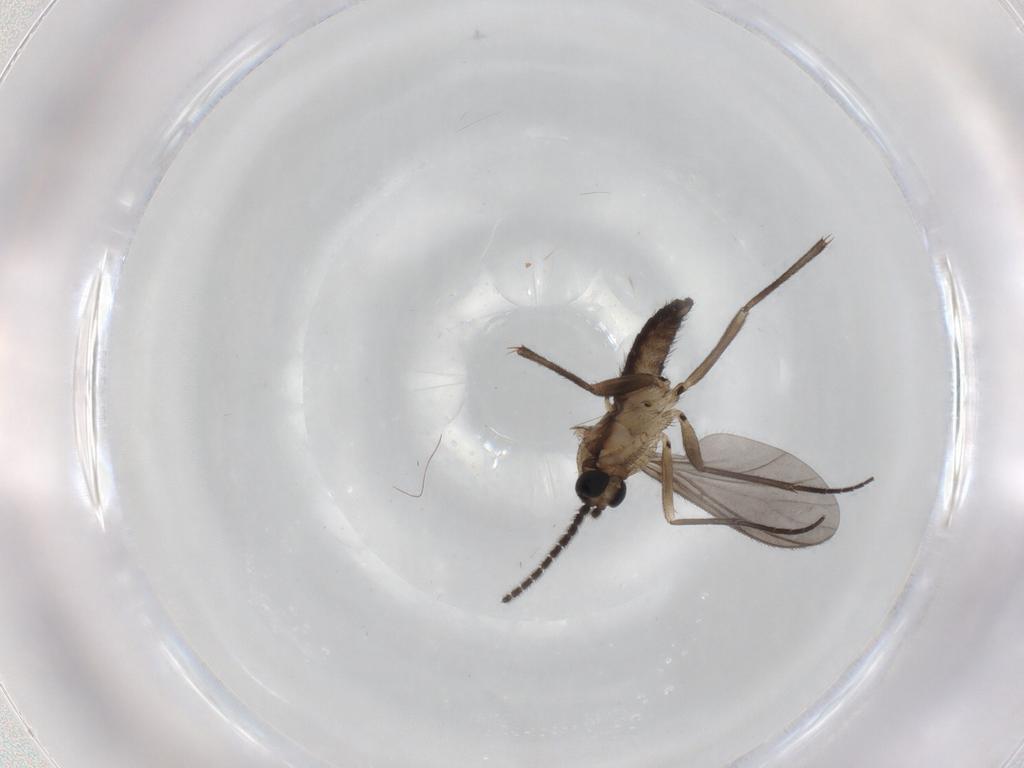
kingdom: Animalia
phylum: Arthropoda
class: Insecta
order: Diptera
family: Sciaridae
